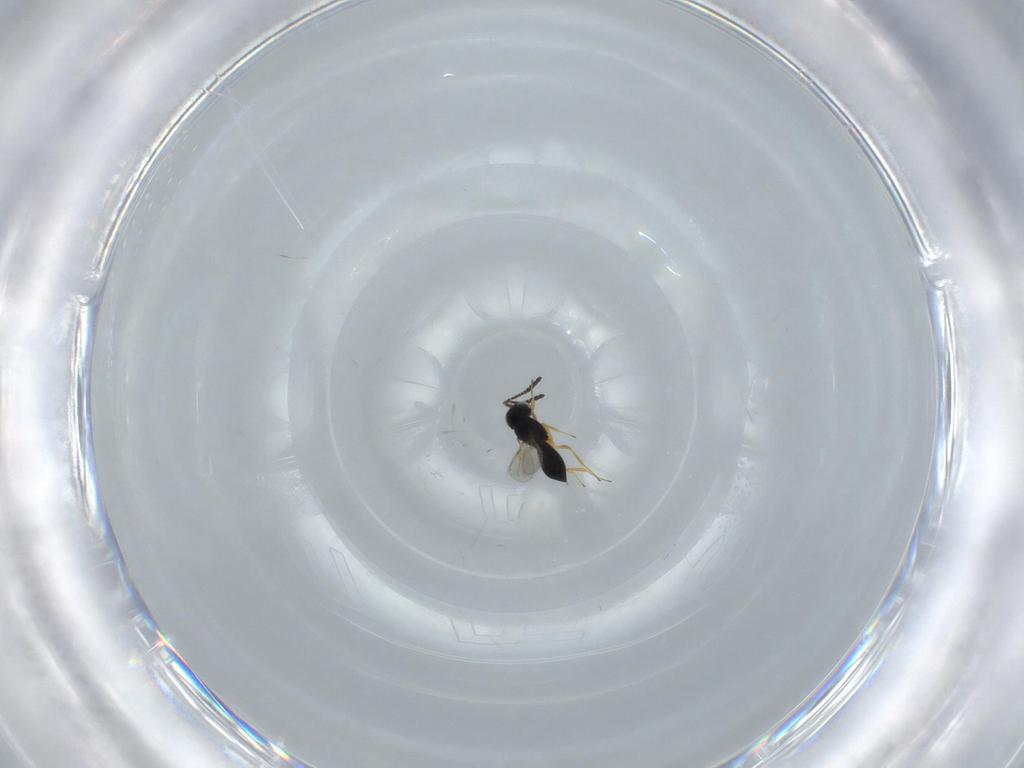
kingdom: Animalia
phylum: Arthropoda
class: Insecta
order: Hymenoptera
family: Scelionidae
